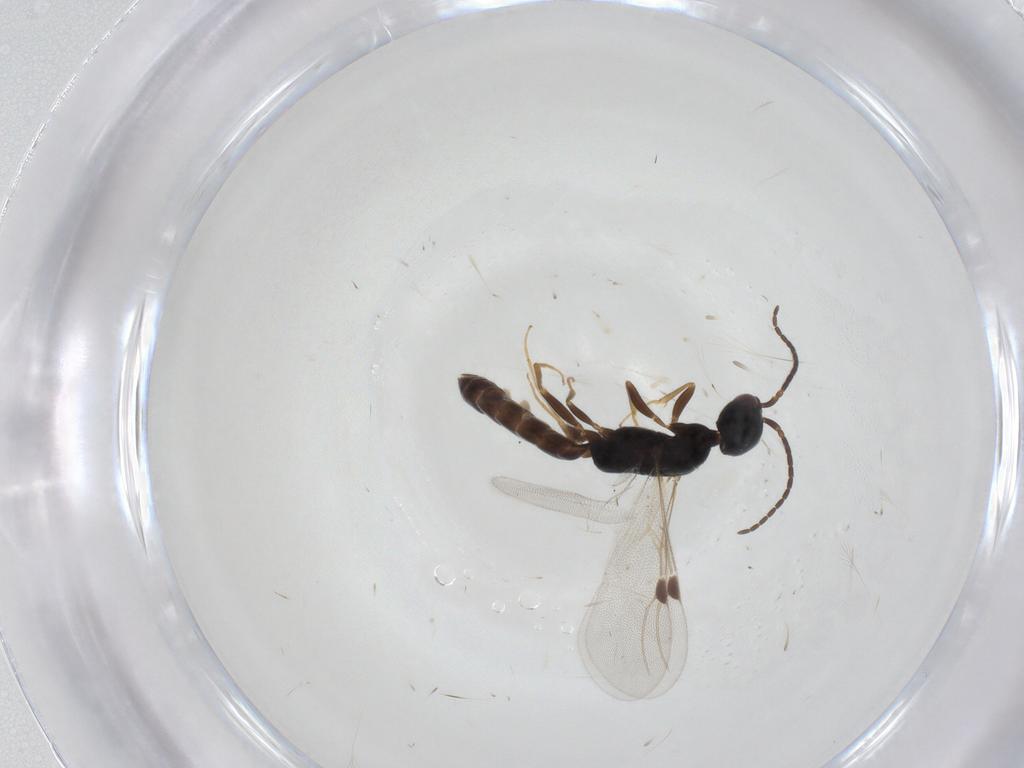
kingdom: Animalia
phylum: Arthropoda
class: Insecta
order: Hymenoptera
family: Bethylidae
